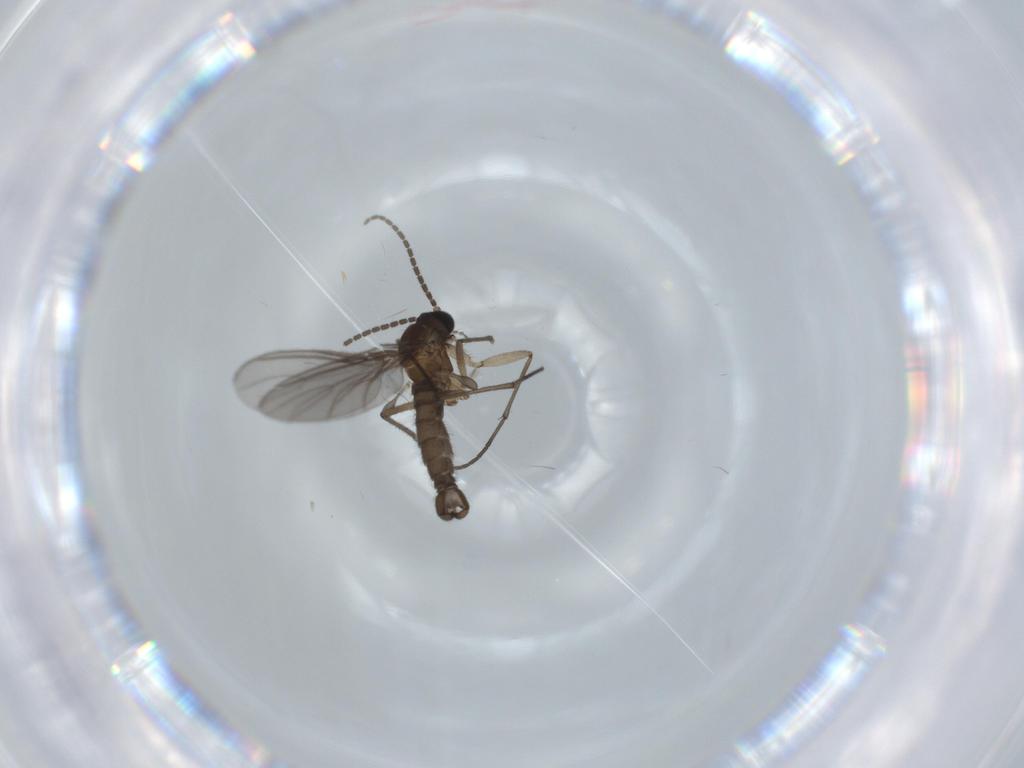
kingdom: Animalia
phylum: Arthropoda
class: Insecta
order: Diptera
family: Sciaridae
